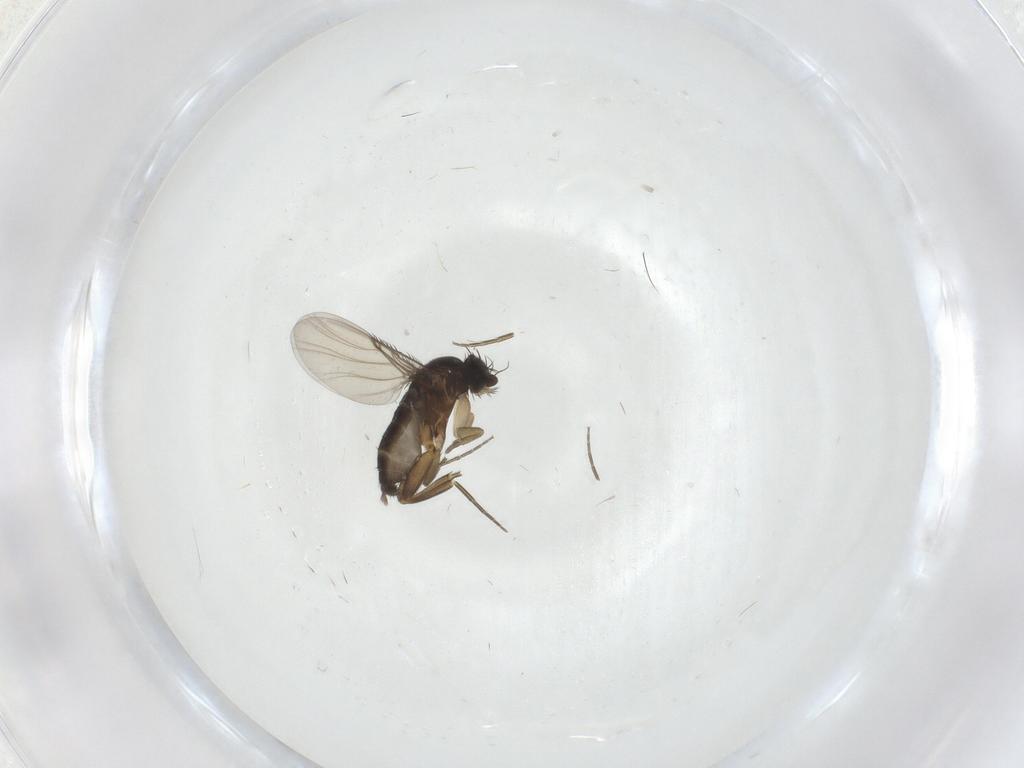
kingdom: Animalia
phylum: Arthropoda
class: Insecta
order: Diptera
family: Phoridae
